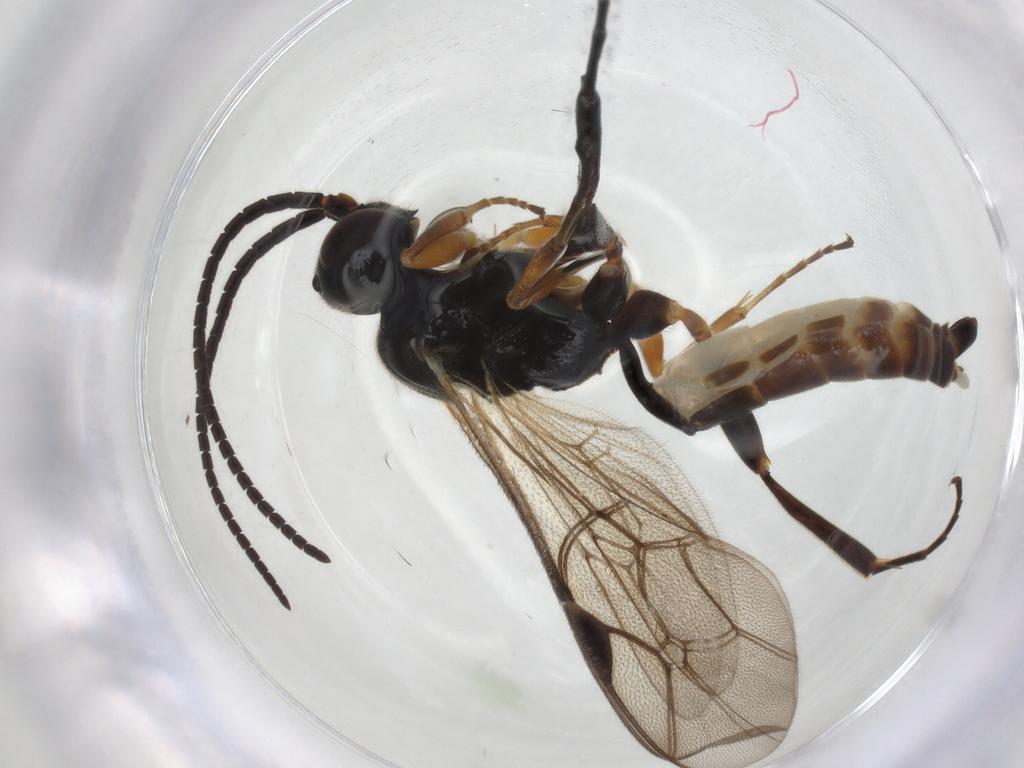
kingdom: Animalia
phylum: Arthropoda
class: Insecta
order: Hymenoptera
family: Ichneumonidae
